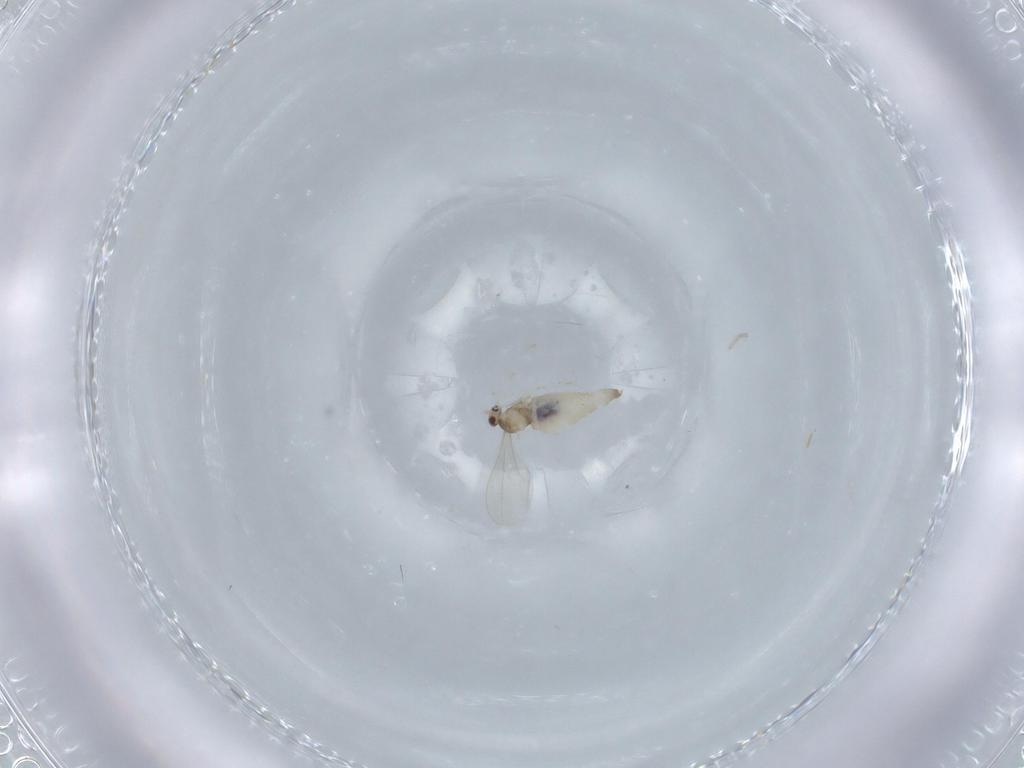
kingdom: Animalia
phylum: Arthropoda
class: Insecta
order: Diptera
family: Cecidomyiidae
